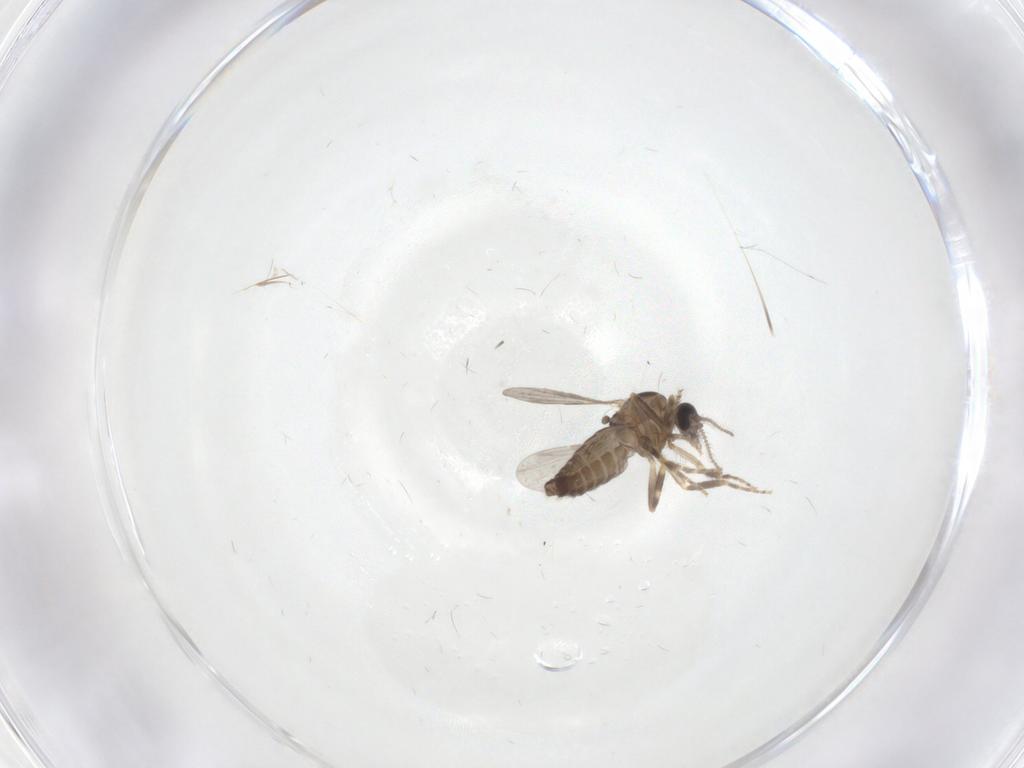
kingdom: Animalia
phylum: Arthropoda
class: Insecta
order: Diptera
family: Ceratopogonidae
